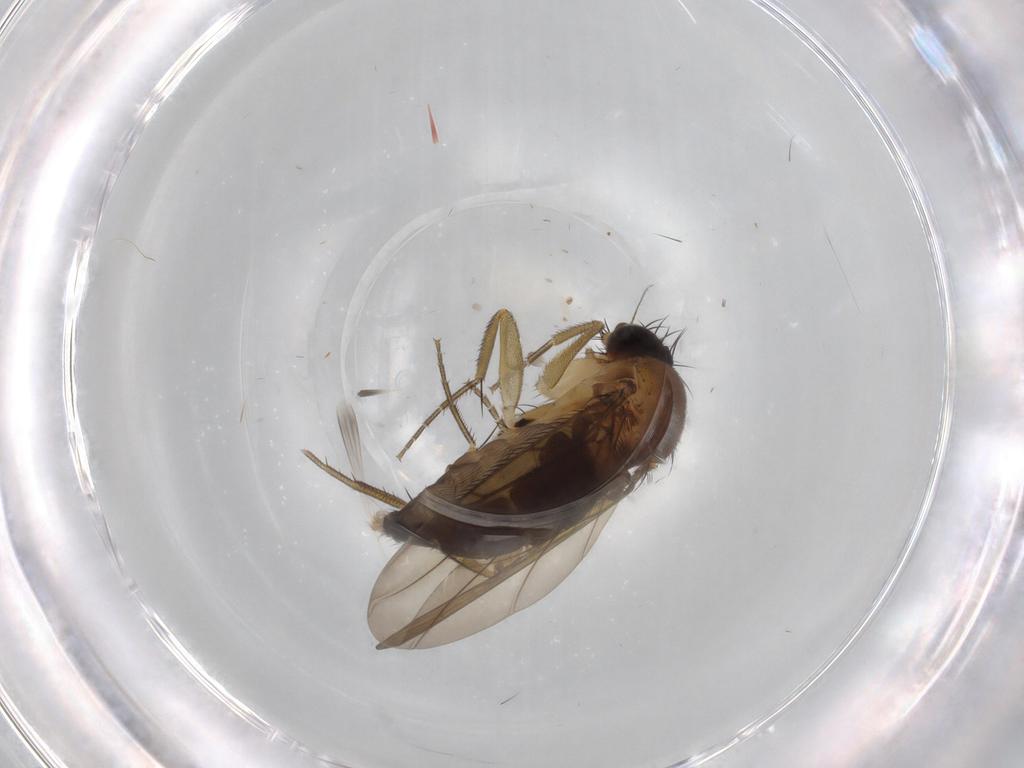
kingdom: Animalia
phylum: Arthropoda
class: Insecta
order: Diptera
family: Phoridae
